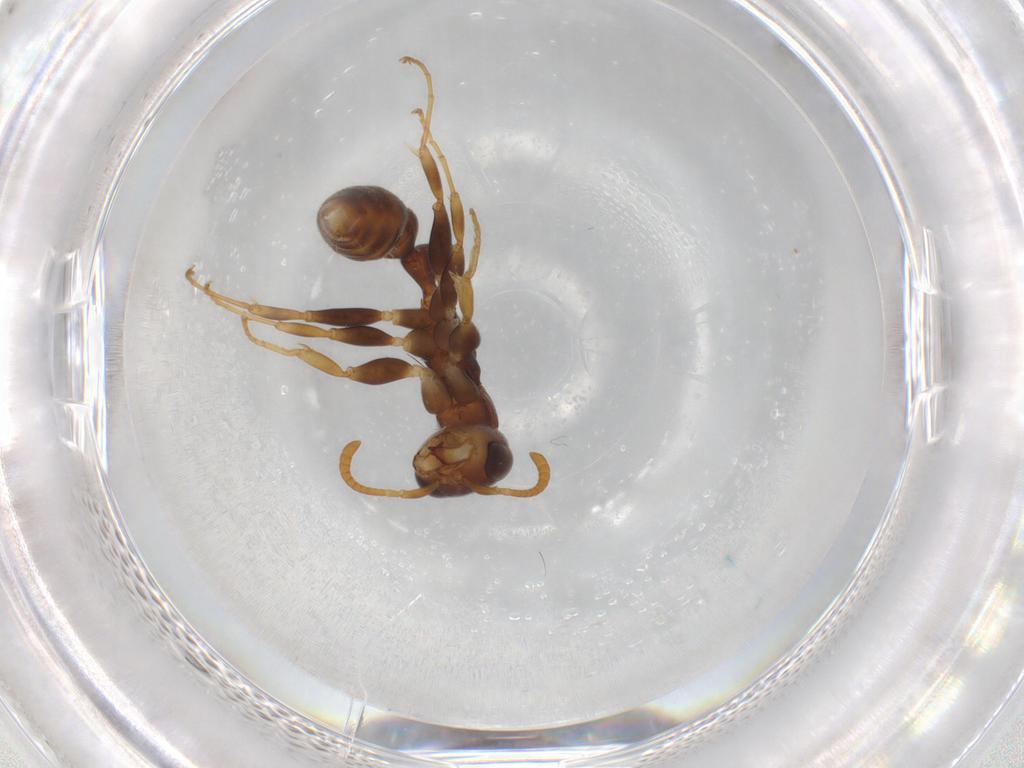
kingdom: Animalia
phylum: Arthropoda
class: Insecta
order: Hymenoptera
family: Formicidae
